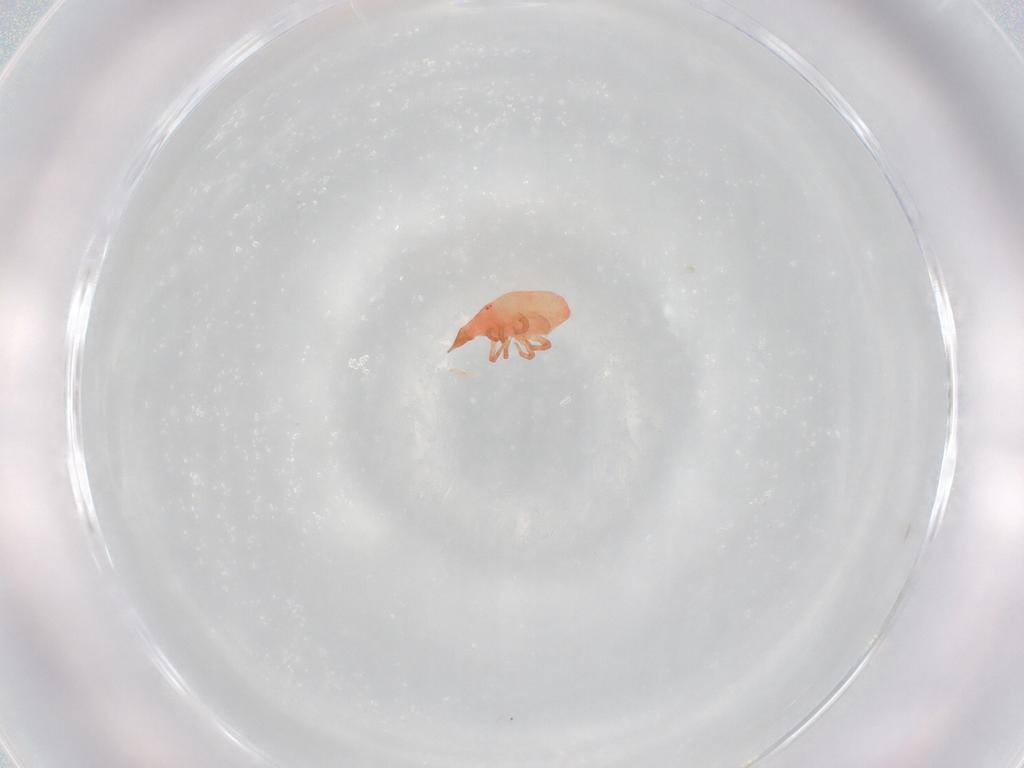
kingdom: Animalia
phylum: Arthropoda
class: Arachnida
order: Trombidiformes
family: Bdellidae
